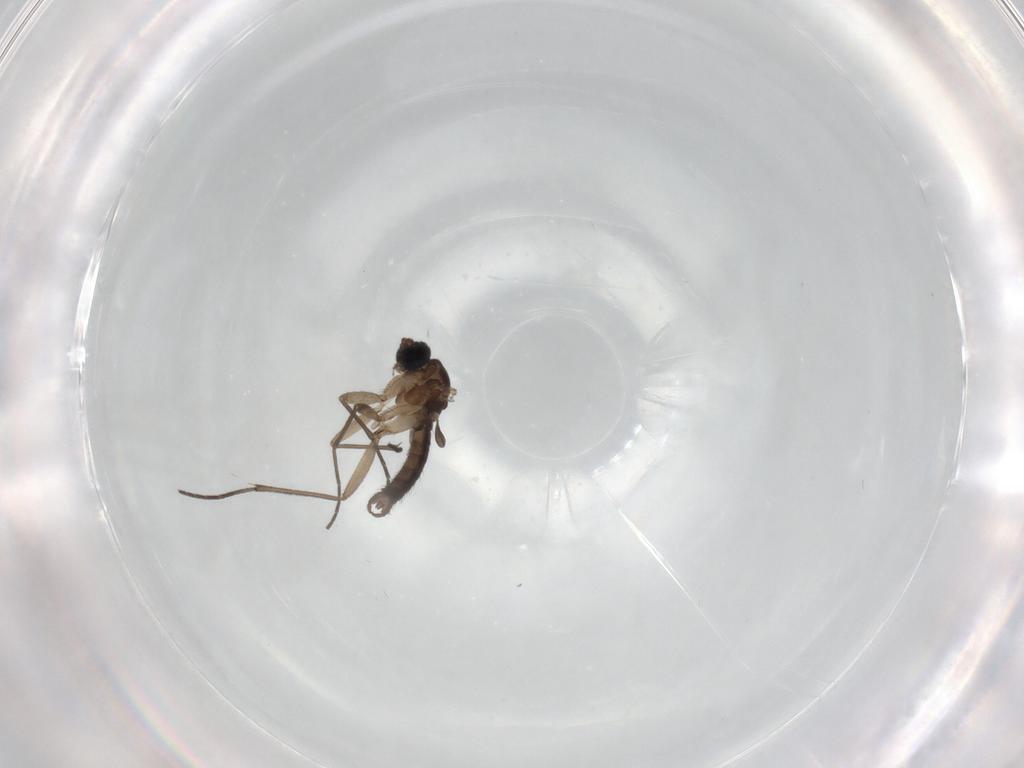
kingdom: Animalia
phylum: Arthropoda
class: Insecta
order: Diptera
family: Sciaridae
